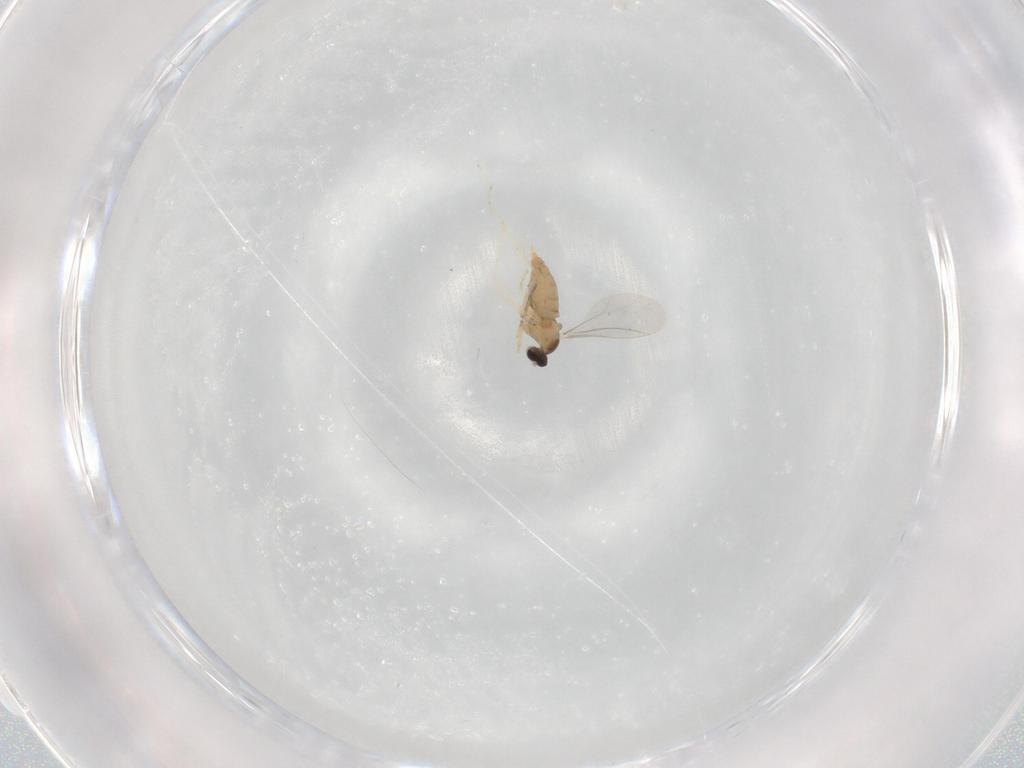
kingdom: Animalia
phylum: Arthropoda
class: Insecta
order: Diptera
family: Cecidomyiidae
